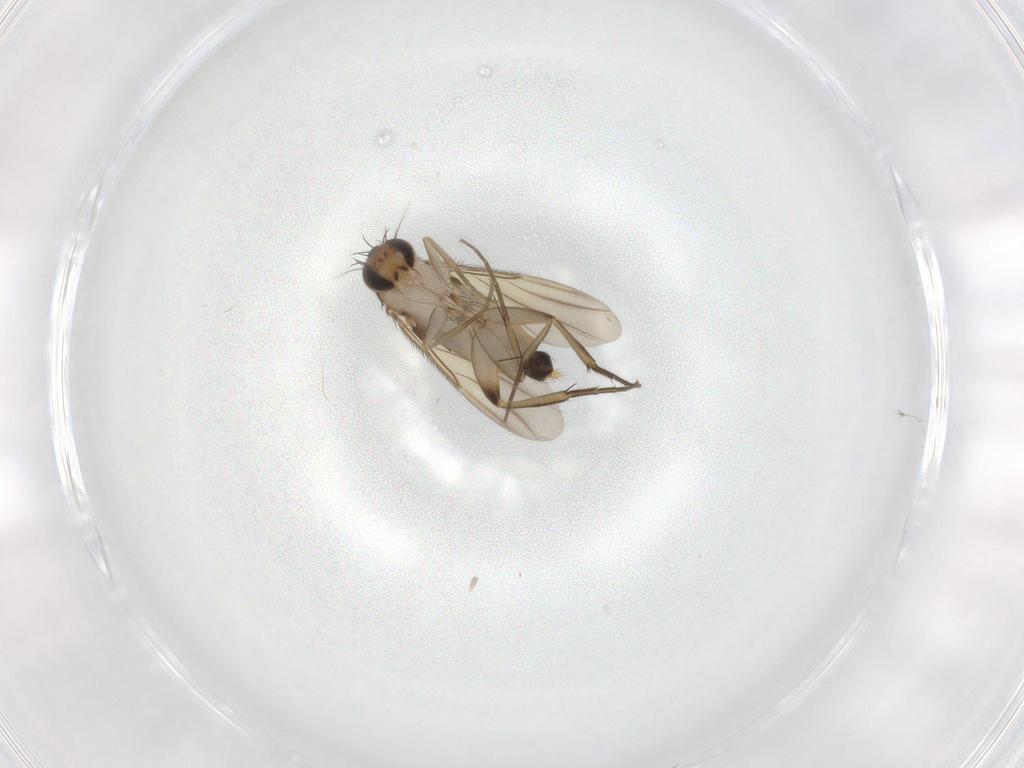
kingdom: Animalia
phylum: Arthropoda
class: Insecta
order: Diptera
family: Phoridae
